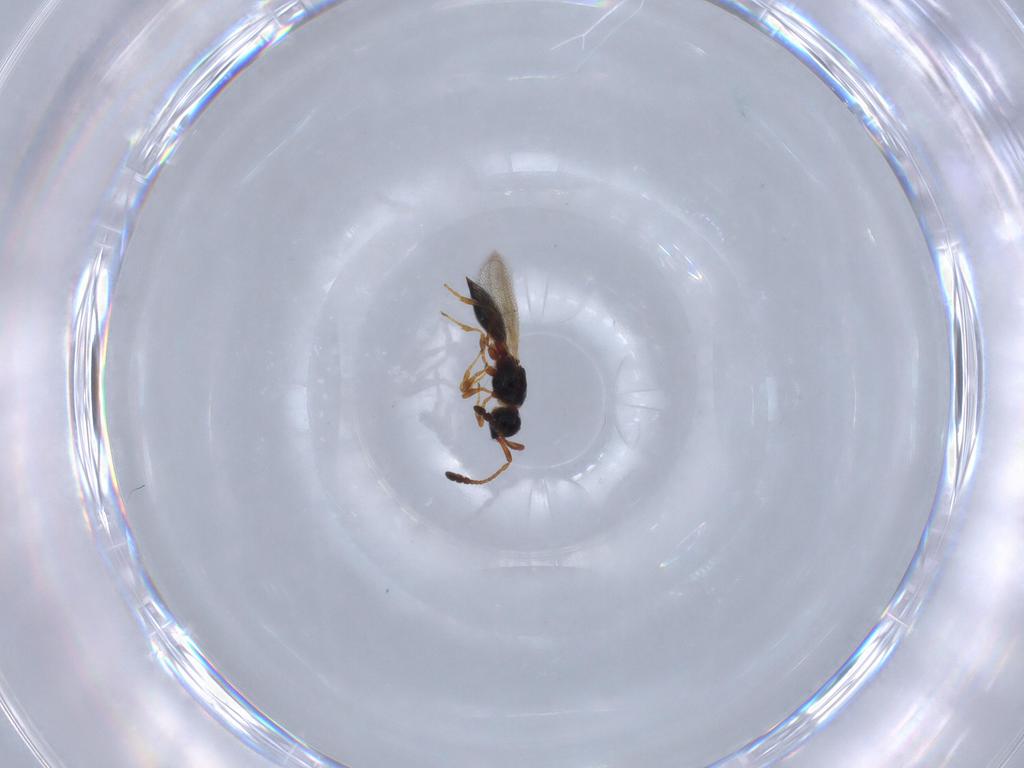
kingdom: Animalia
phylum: Arthropoda
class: Insecta
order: Hymenoptera
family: Diapriidae
